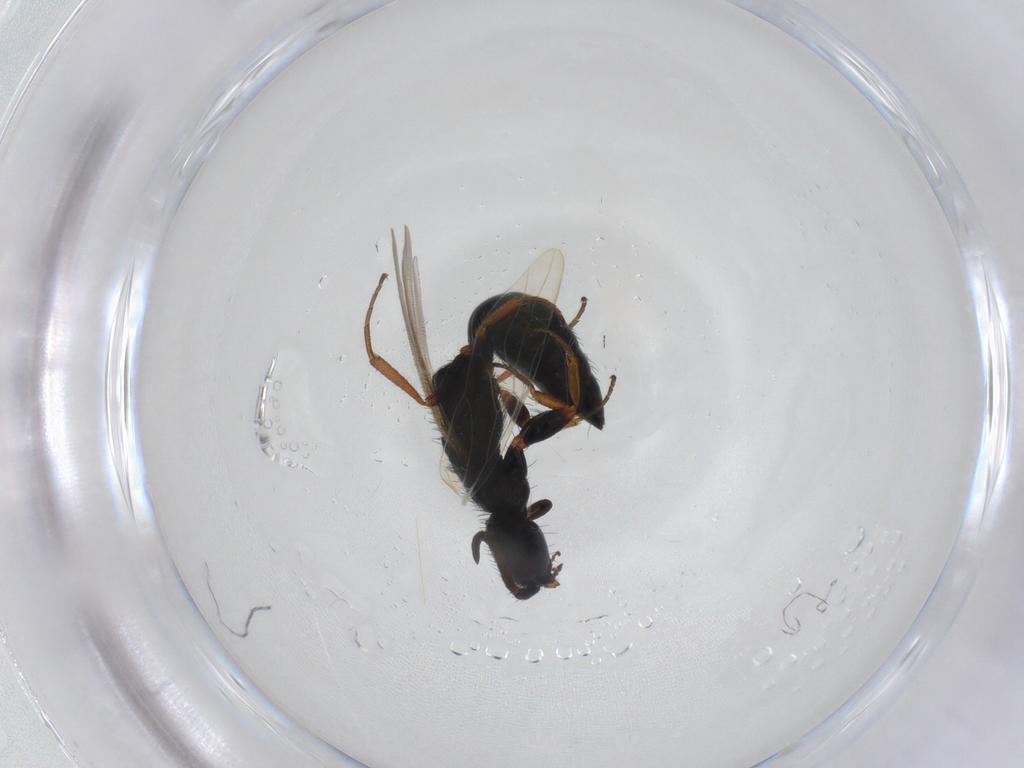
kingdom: Animalia
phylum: Arthropoda
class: Insecta
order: Hymenoptera
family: Bethylidae
